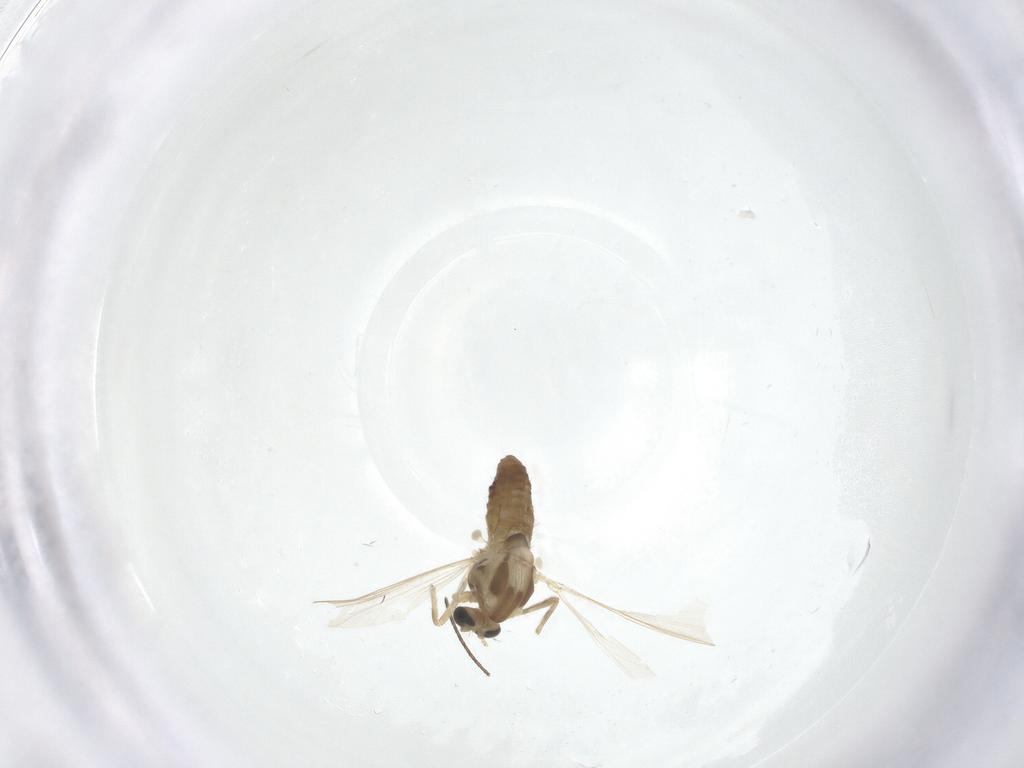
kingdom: Animalia
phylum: Arthropoda
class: Insecta
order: Diptera
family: Chironomidae
